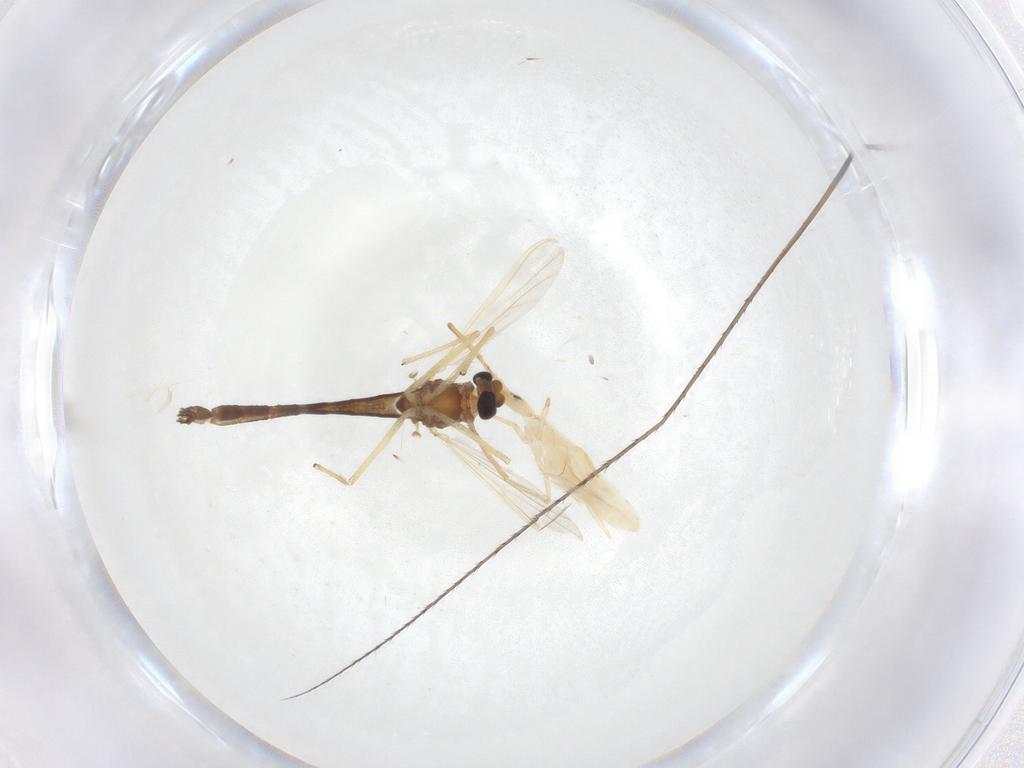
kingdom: Animalia
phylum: Arthropoda
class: Insecta
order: Diptera
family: Chironomidae
